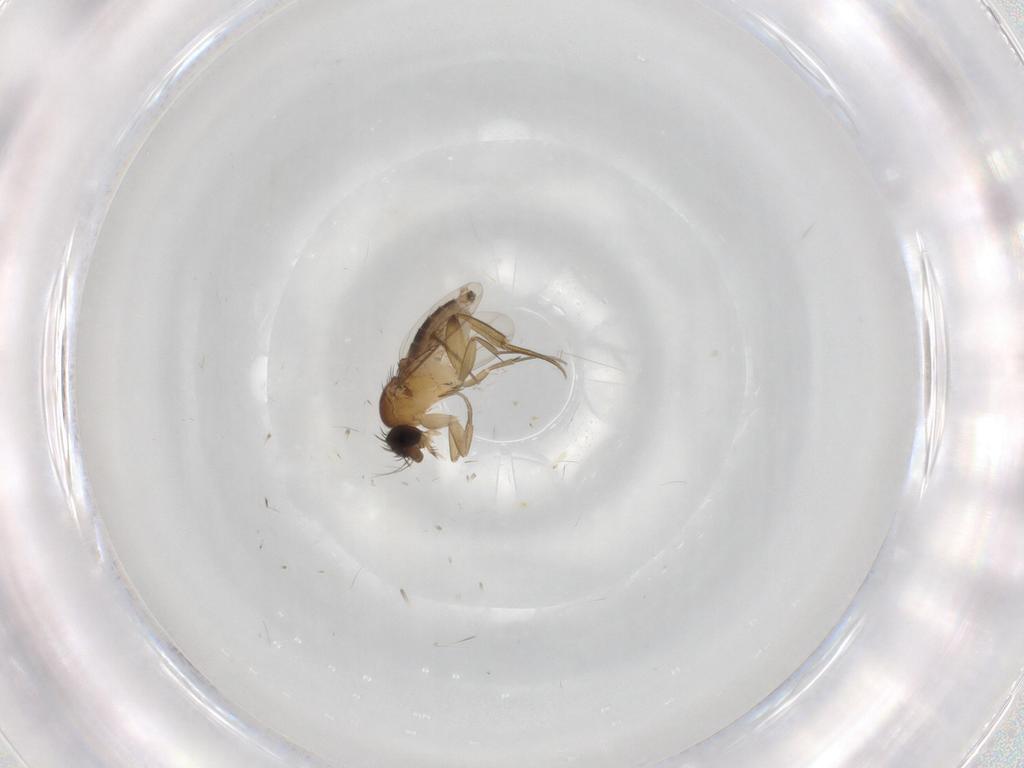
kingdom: Animalia
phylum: Arthropoda
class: Insecta
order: Diptera
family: Phoridae
